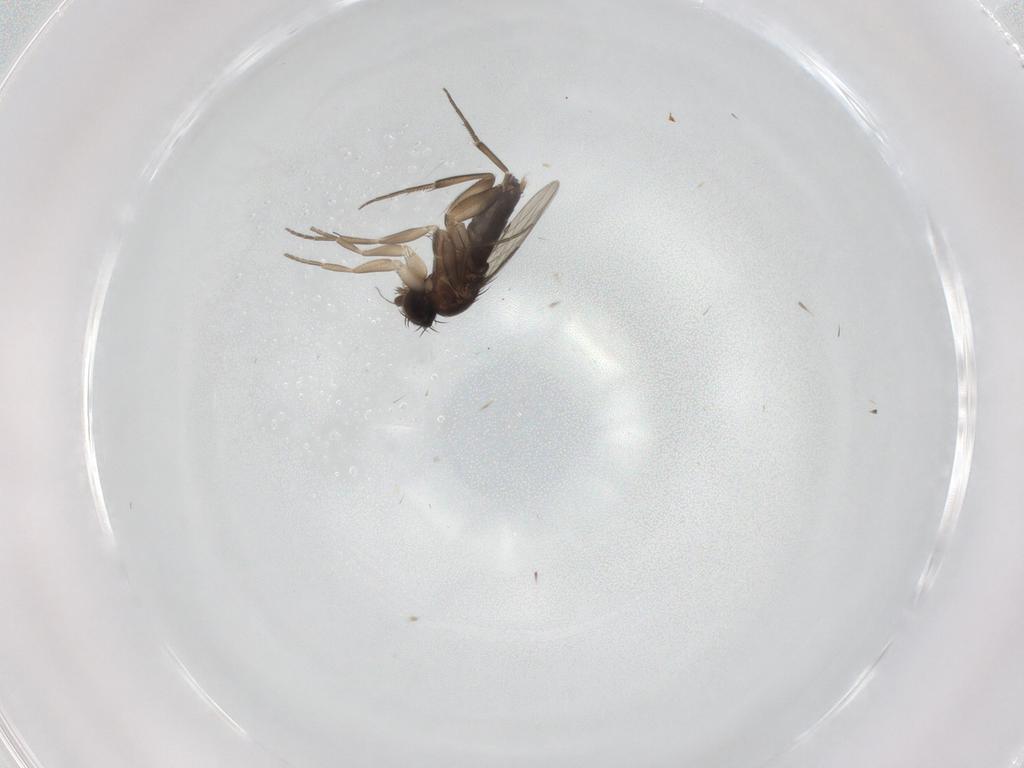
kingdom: Animalia
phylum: Arthropoda
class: Insecta
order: Diptera
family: Phoridae
